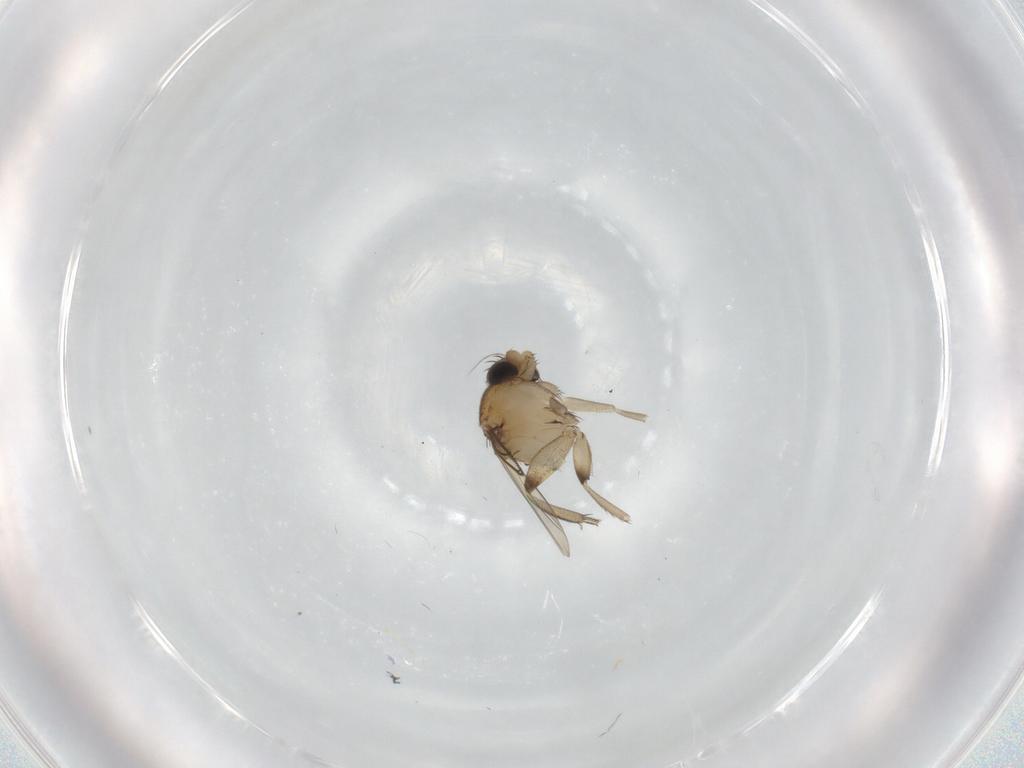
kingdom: Animalia
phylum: Arthropoda
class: Insecta
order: Diptera
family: Phoridae
